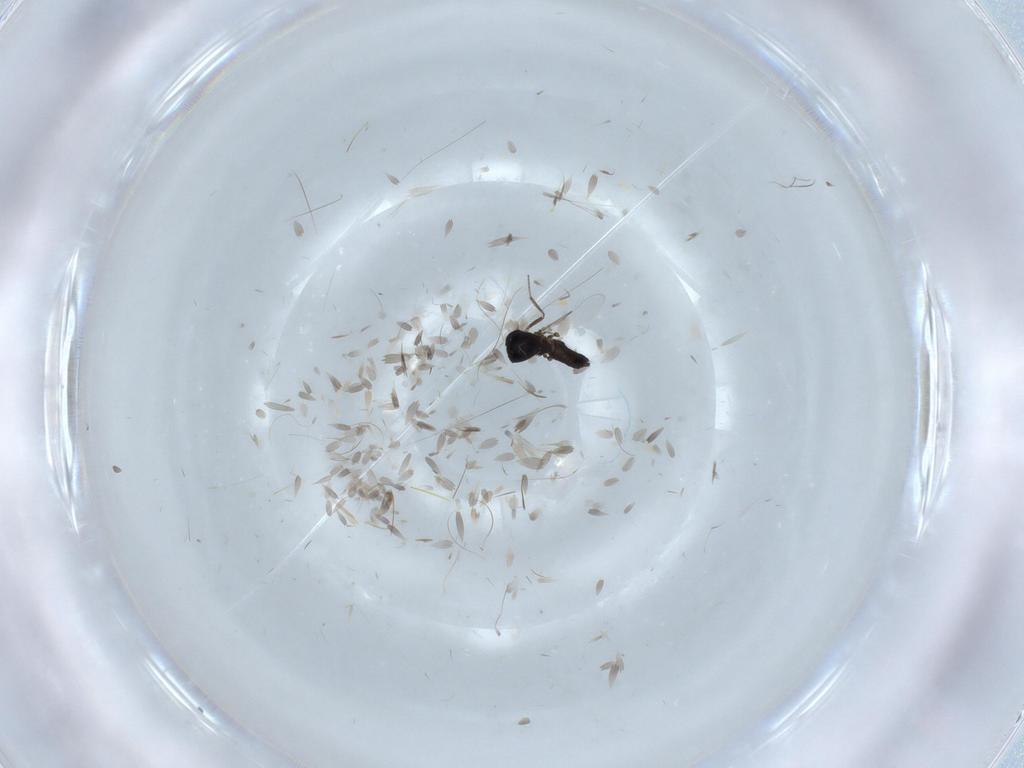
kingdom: Animalia
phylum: Arthropoda
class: Insecta
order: Diptera
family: Ceratopogonidae
